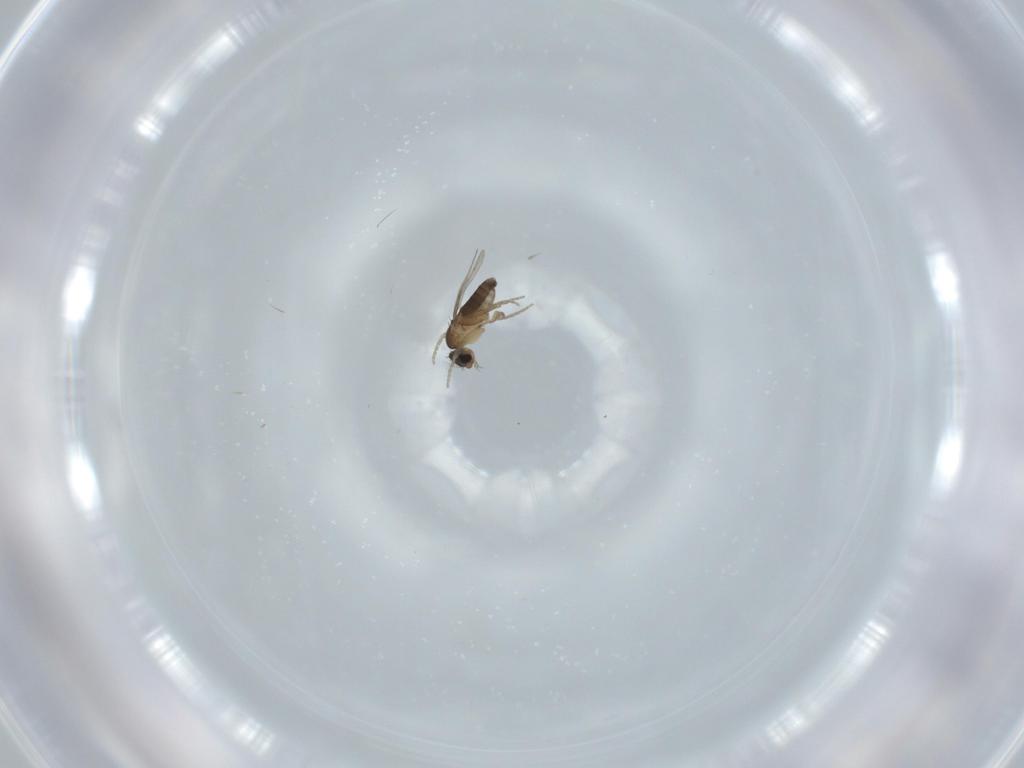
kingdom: Animalia
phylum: Arthropoda
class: Insecta
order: Diptera
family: Phoridae
